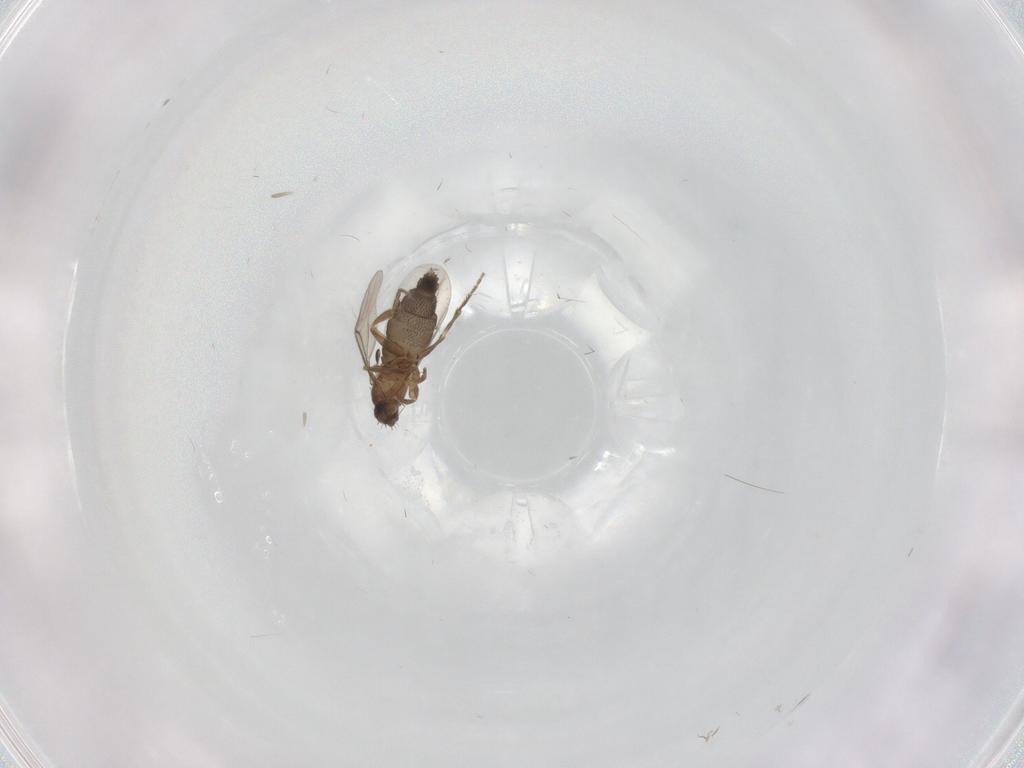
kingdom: Animalia
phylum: Arthropoda
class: Insecta
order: Diptera
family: Phoridae
